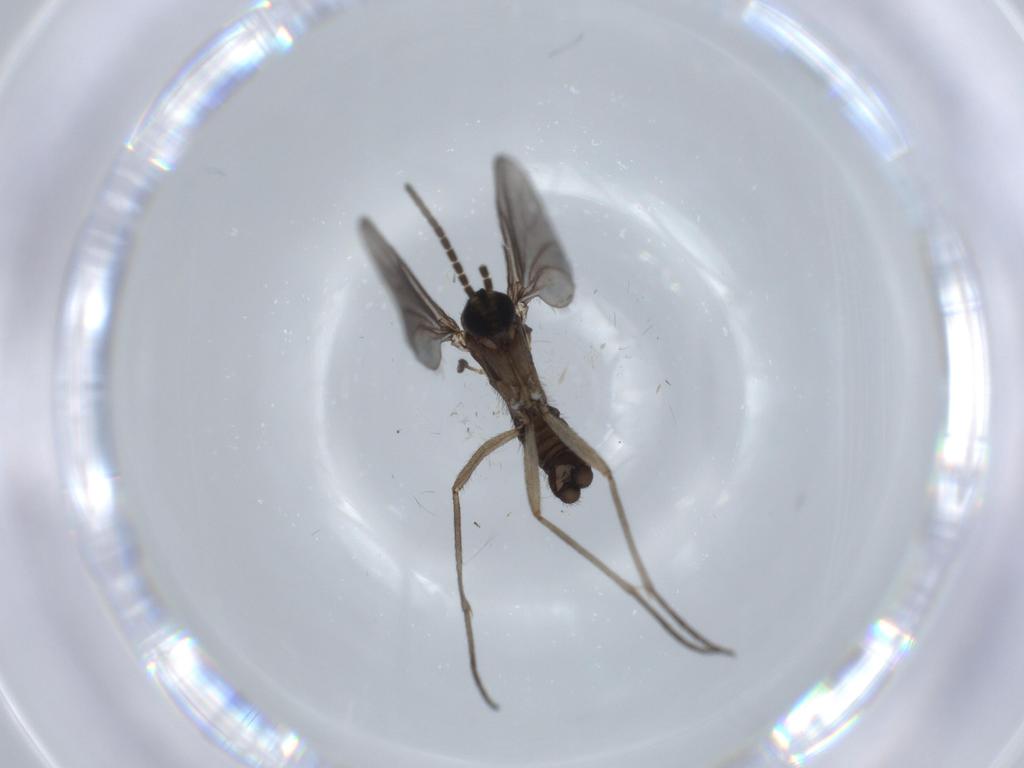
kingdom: Animalia
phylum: Arthropoda
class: Insecta
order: Diptera
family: Sciaridae
